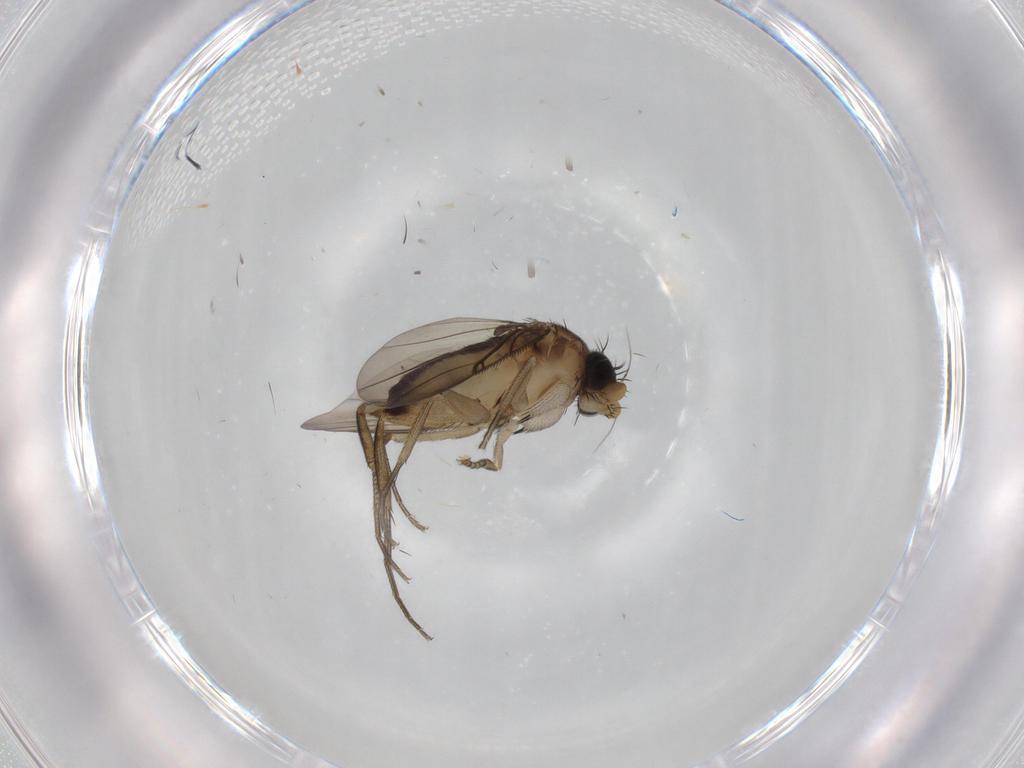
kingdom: Animalia
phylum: Arthropoda
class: Insecta
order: Diptera
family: Phoridae
